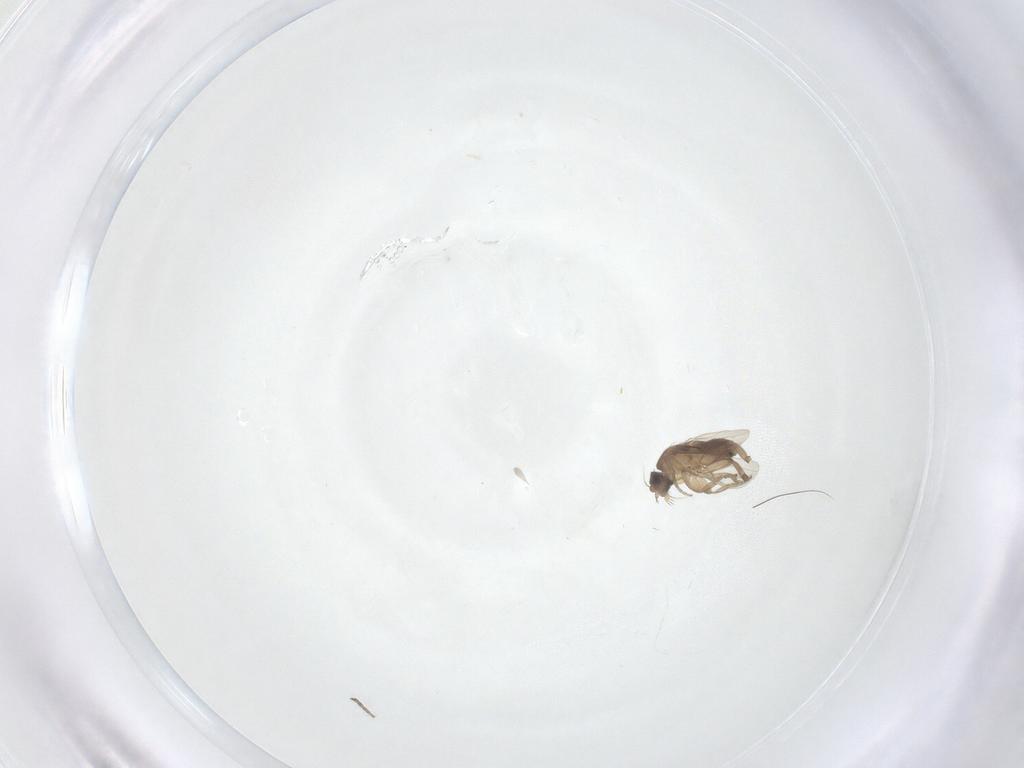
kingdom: Animalia
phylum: Arthropoda
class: Insecta
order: Diptera
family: Phoridae
